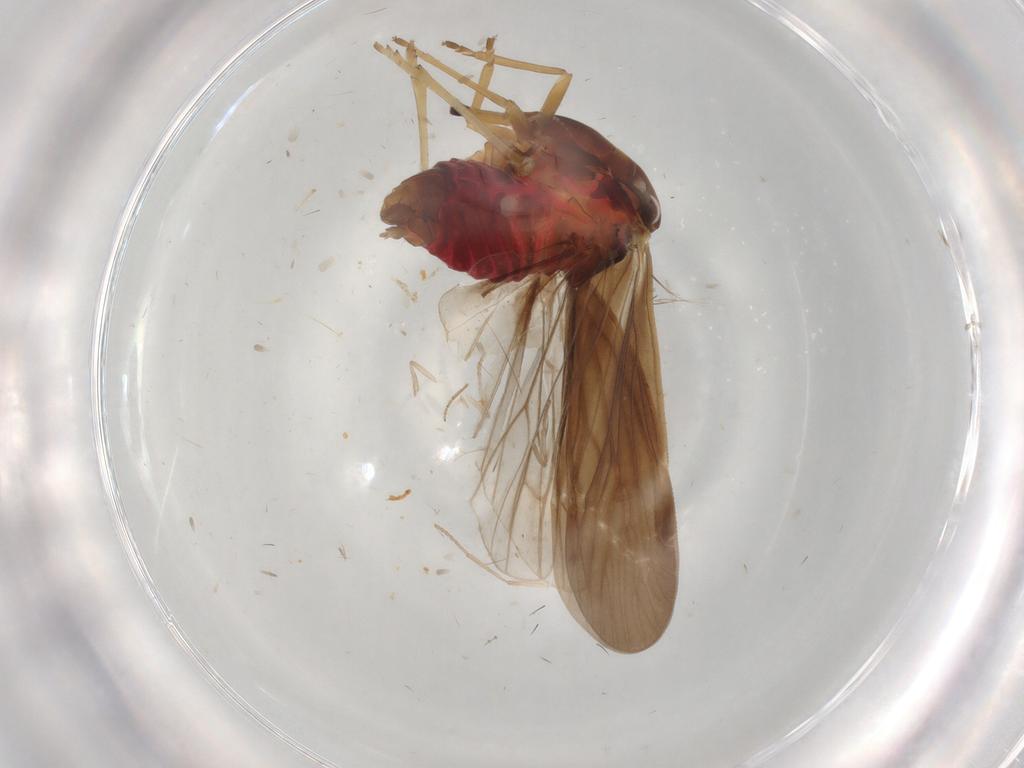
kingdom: Animalia
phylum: Arthropoda
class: Insecta
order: Hemiptera
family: Derbidae
